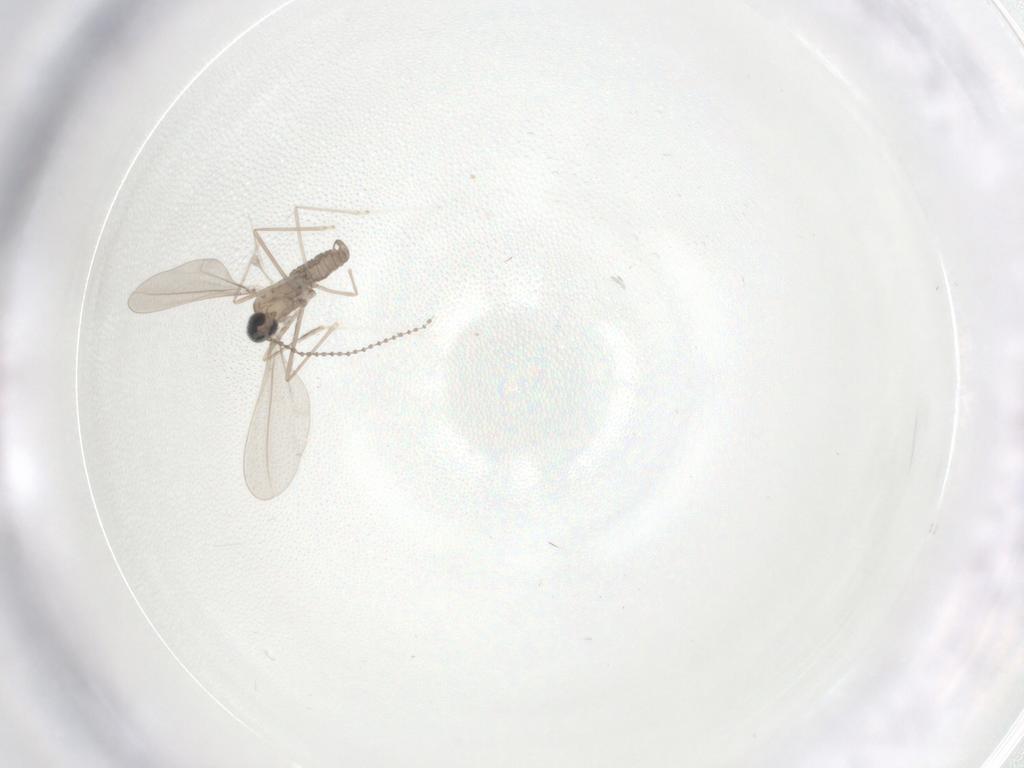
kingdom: Animalia
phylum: Arthropoda
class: Insecta
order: Diptera
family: Cecidomyiidae
